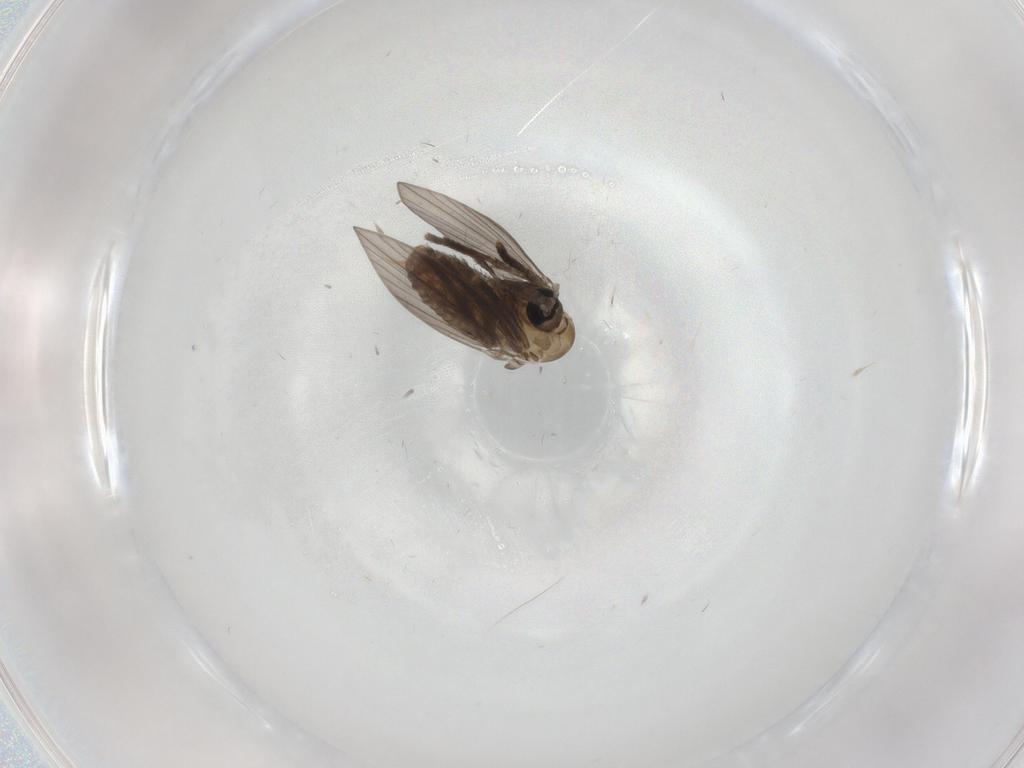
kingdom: Animalia
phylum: Arthropoda
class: Insecta
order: Diptera
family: Psychodidae
